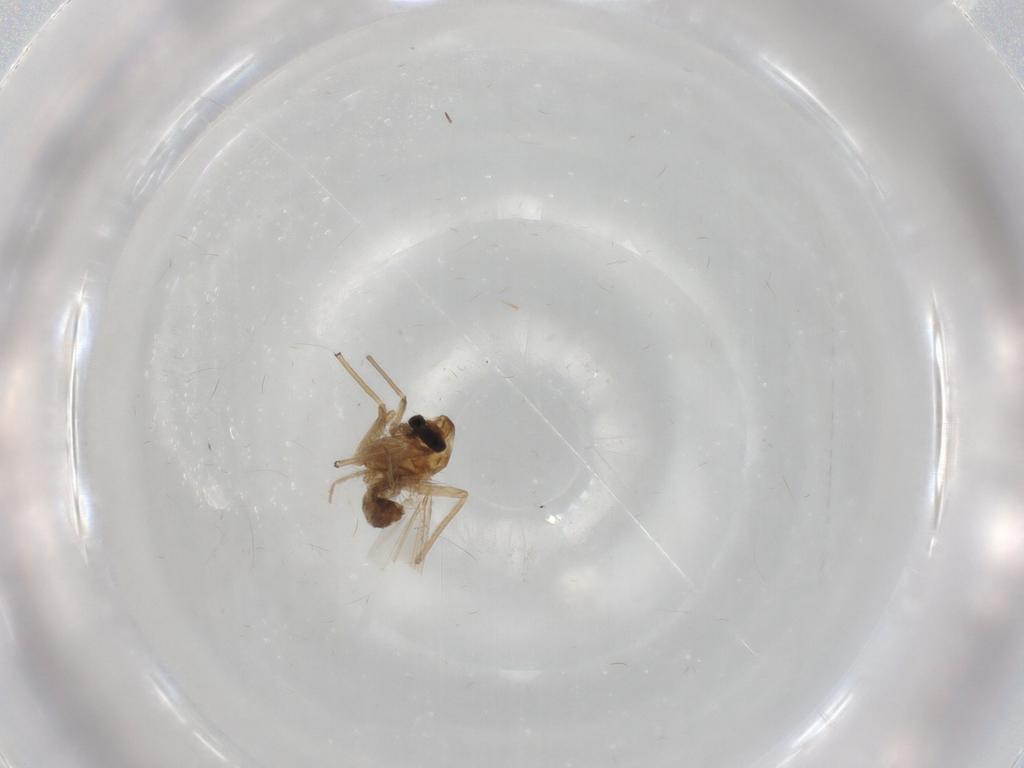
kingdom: Animalia
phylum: Arthropoda
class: Insecta
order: Diptera
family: Chironomidae
